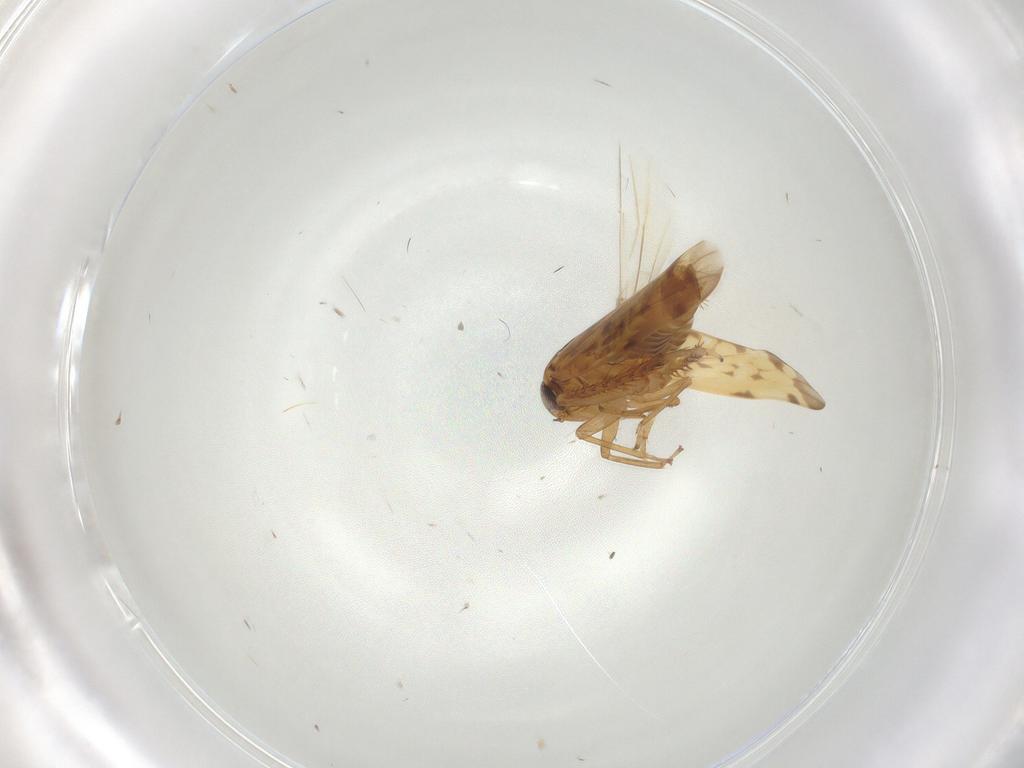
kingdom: Animalia
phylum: Arthropoda
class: Insecta
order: Hemiptera
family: Cicadellidae
